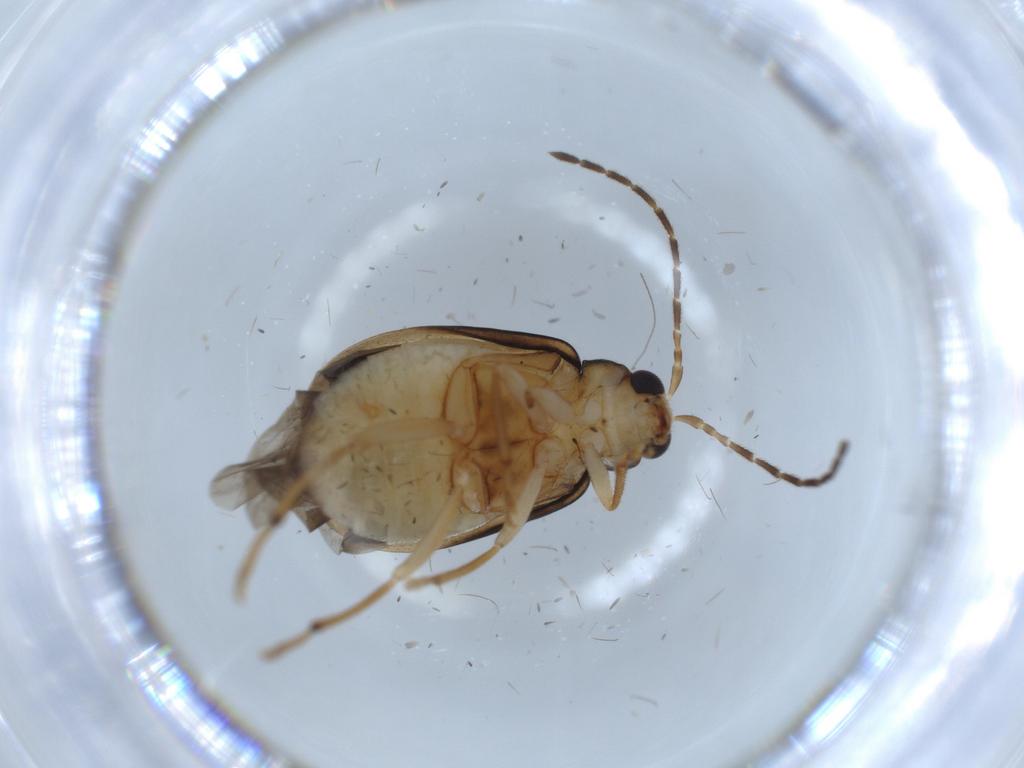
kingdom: Animalia
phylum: Arthropoda
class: Insecta
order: Coleoptera
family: Chrysomelidae
